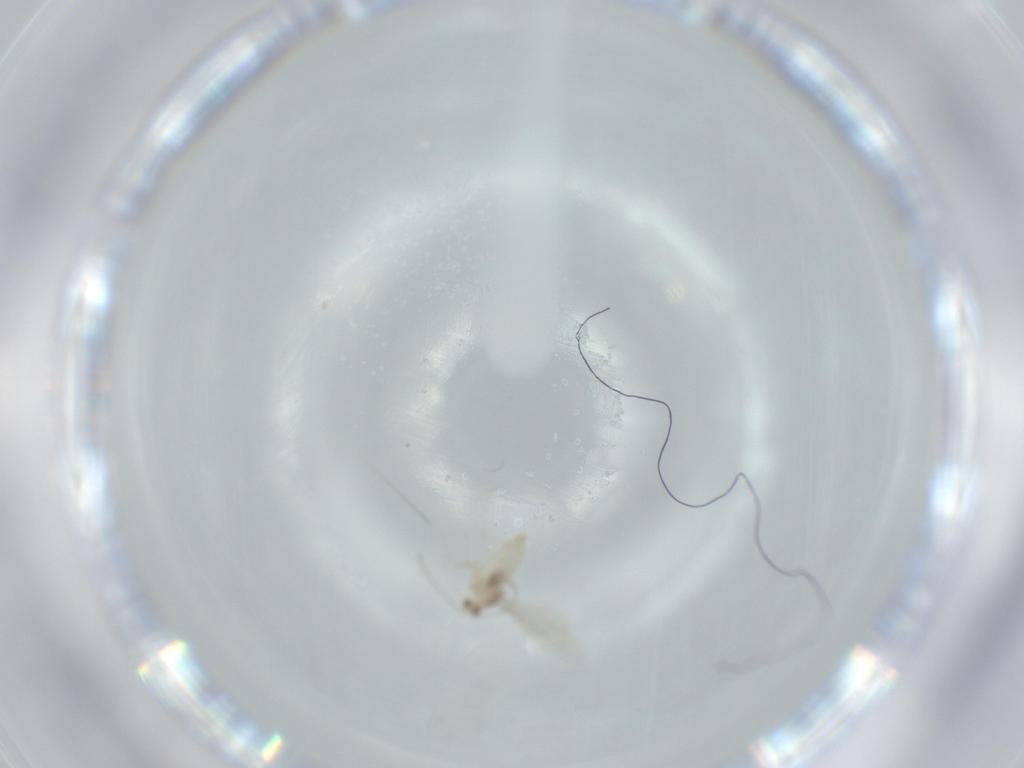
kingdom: Animalia
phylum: Arthropoda
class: Insecta
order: Diptera
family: Cecidomyiidae
